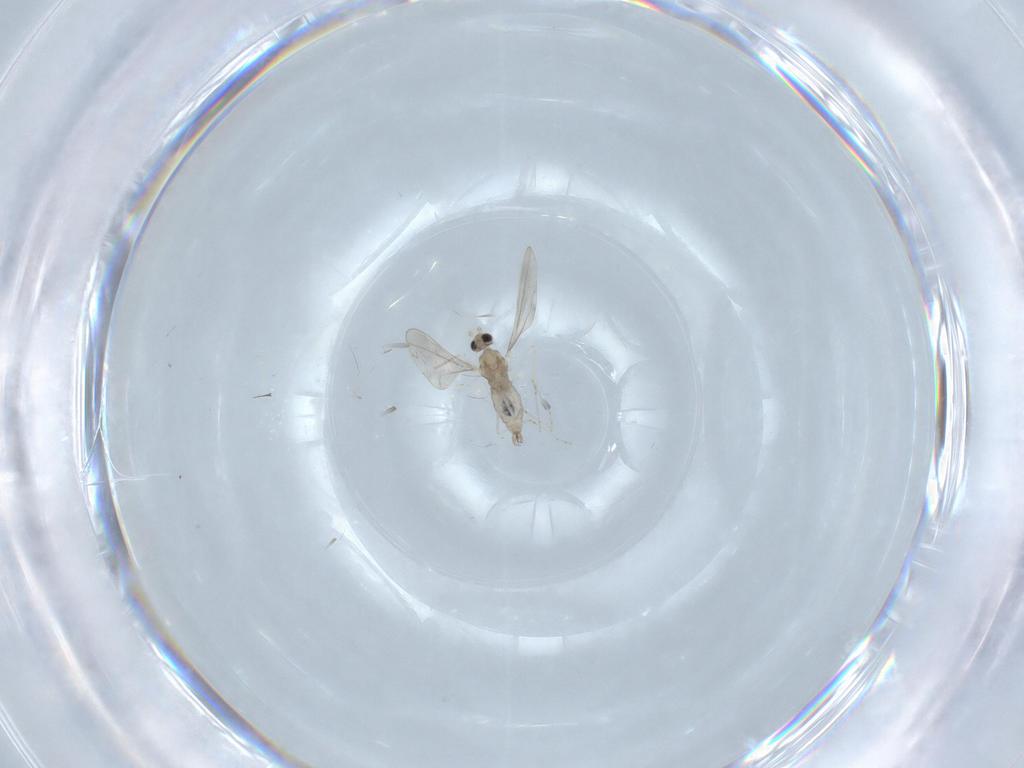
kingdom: Animalia
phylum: Arthropoda
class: Insecta
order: Diptera
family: Cecidomyiidae
